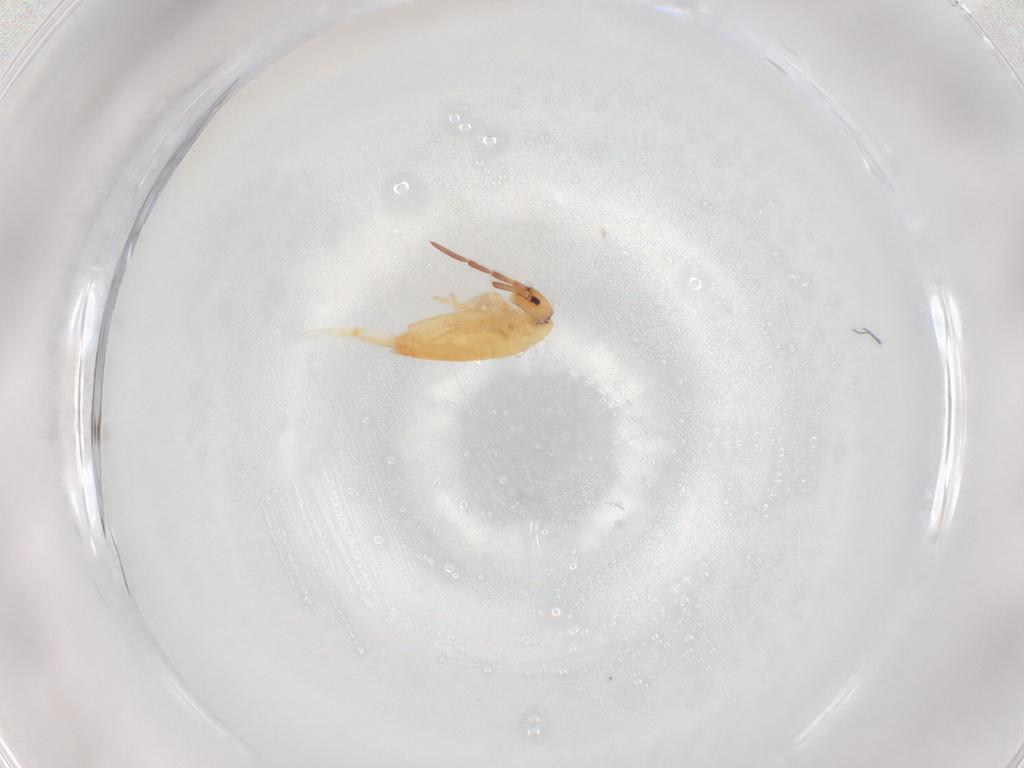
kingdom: Animalia
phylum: Arthropoda
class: Collembola
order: Entomobryomorpha
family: Entomobryidae
